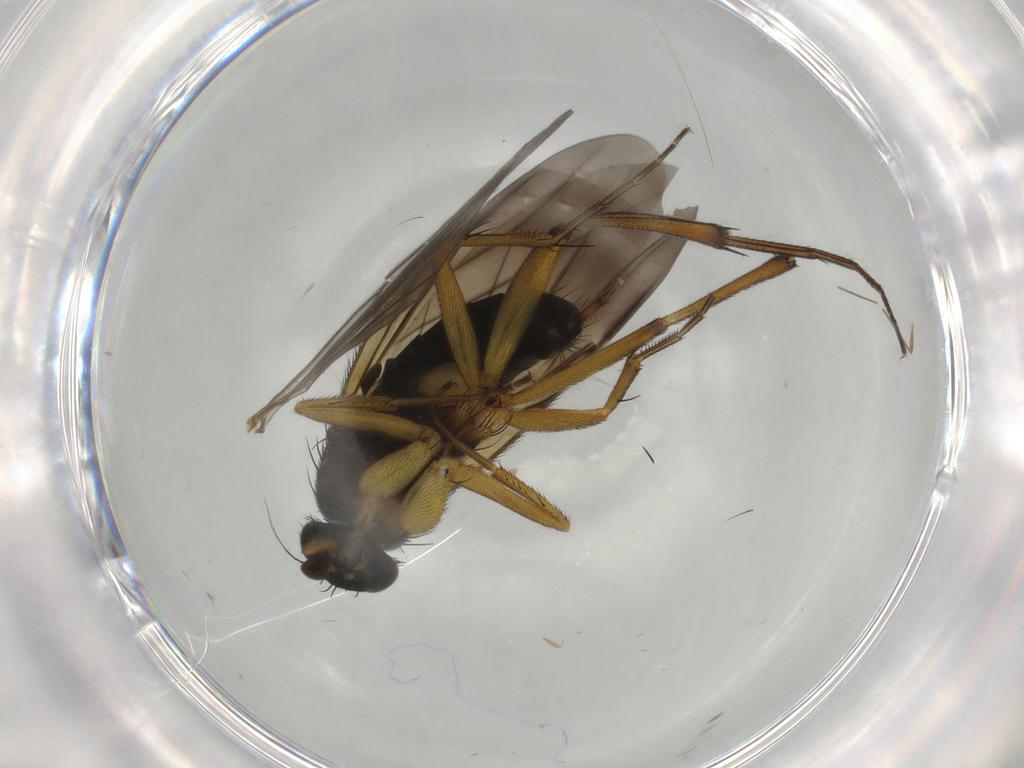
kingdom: Animalia
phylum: Arthropoda
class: Insecta
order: Diptera
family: Phoridae
